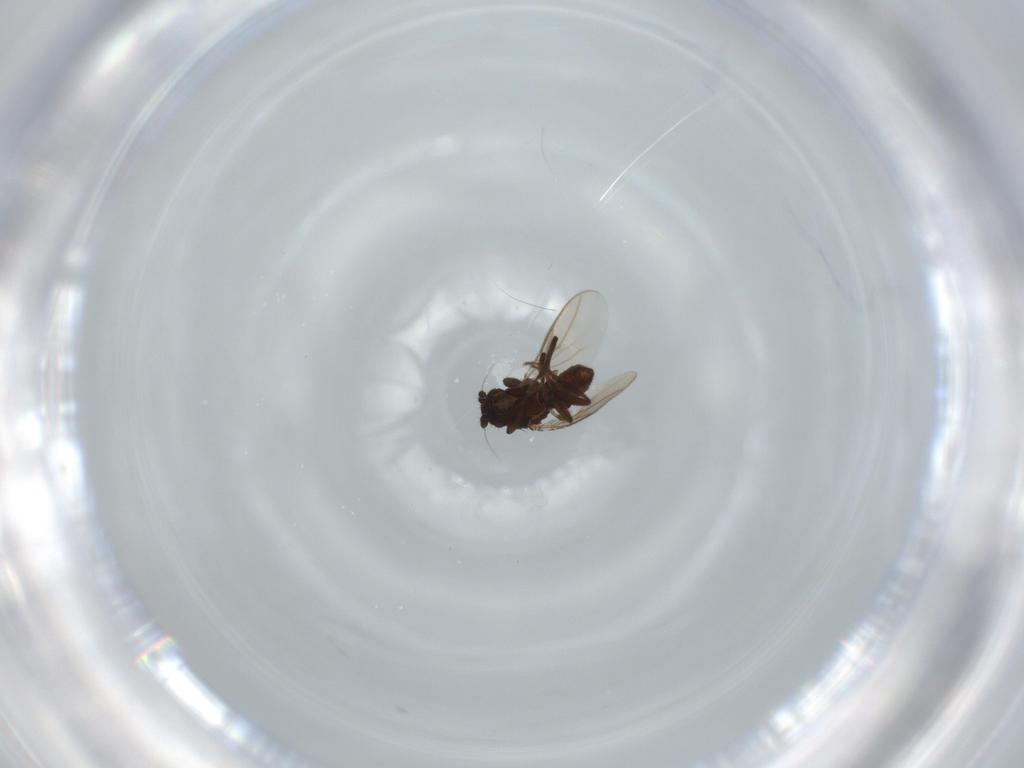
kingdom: Animalia
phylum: Arthropoda
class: Insecta
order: Diptera
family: Sphaeroceridae
